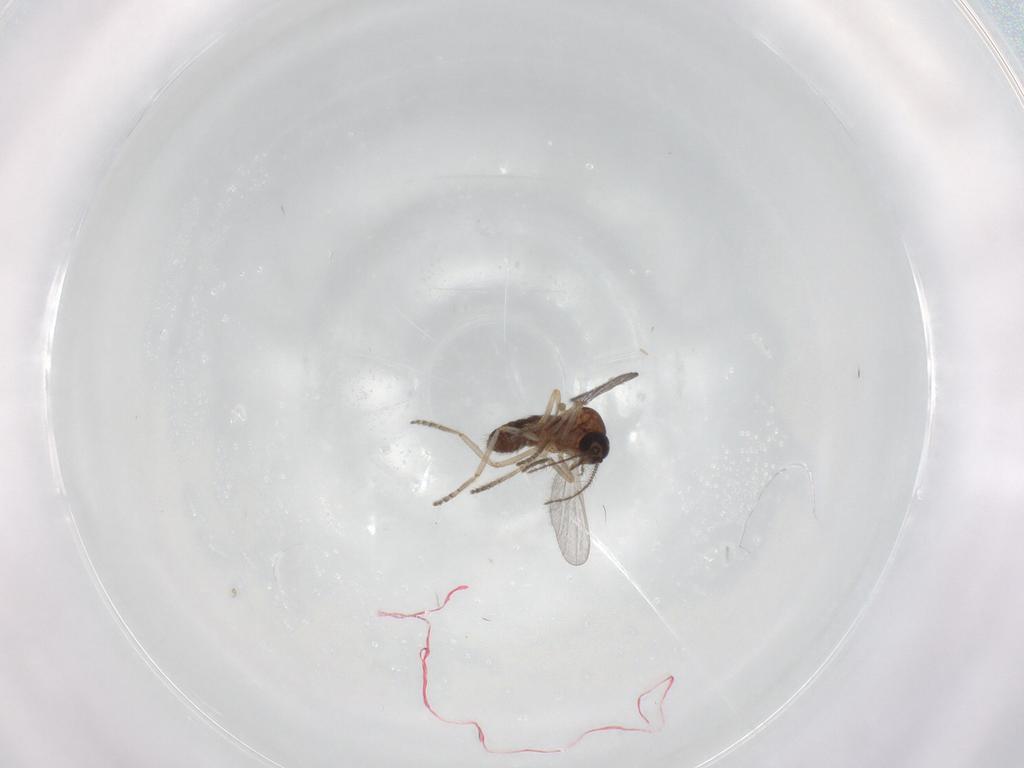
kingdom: Animalia
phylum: Arthropoda
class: Insecta
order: Diptera
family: Ceratopogonidae
